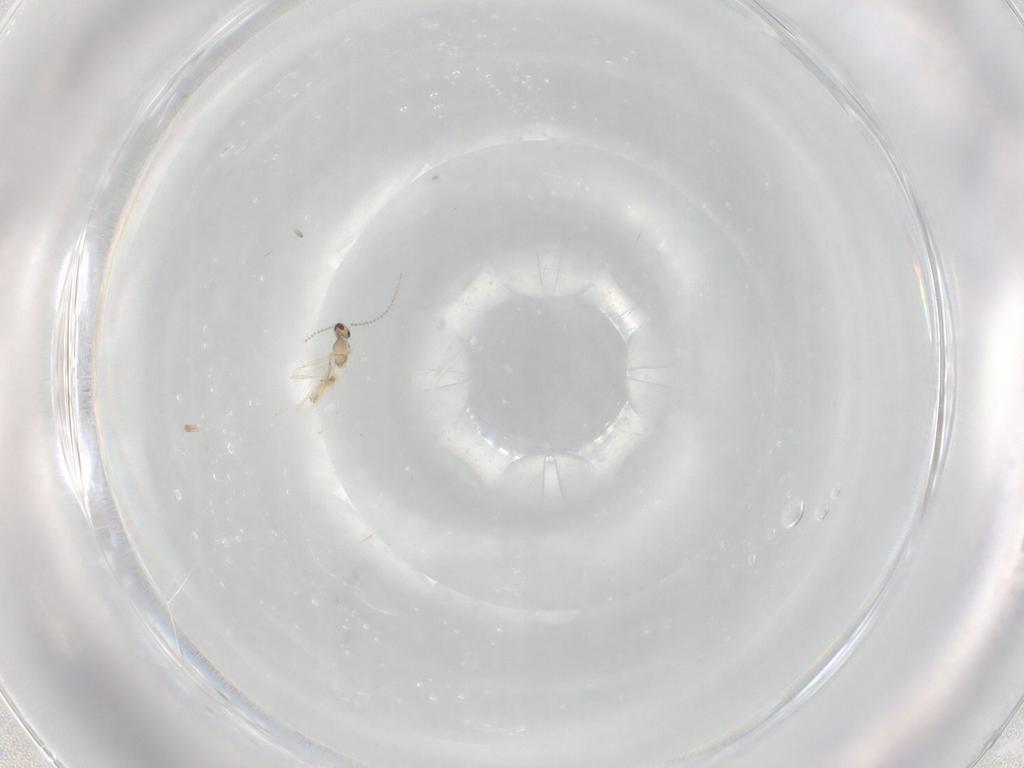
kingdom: Animalia
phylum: Arthropoda
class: Insecta
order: Diptera
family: Cecidomyiidae
